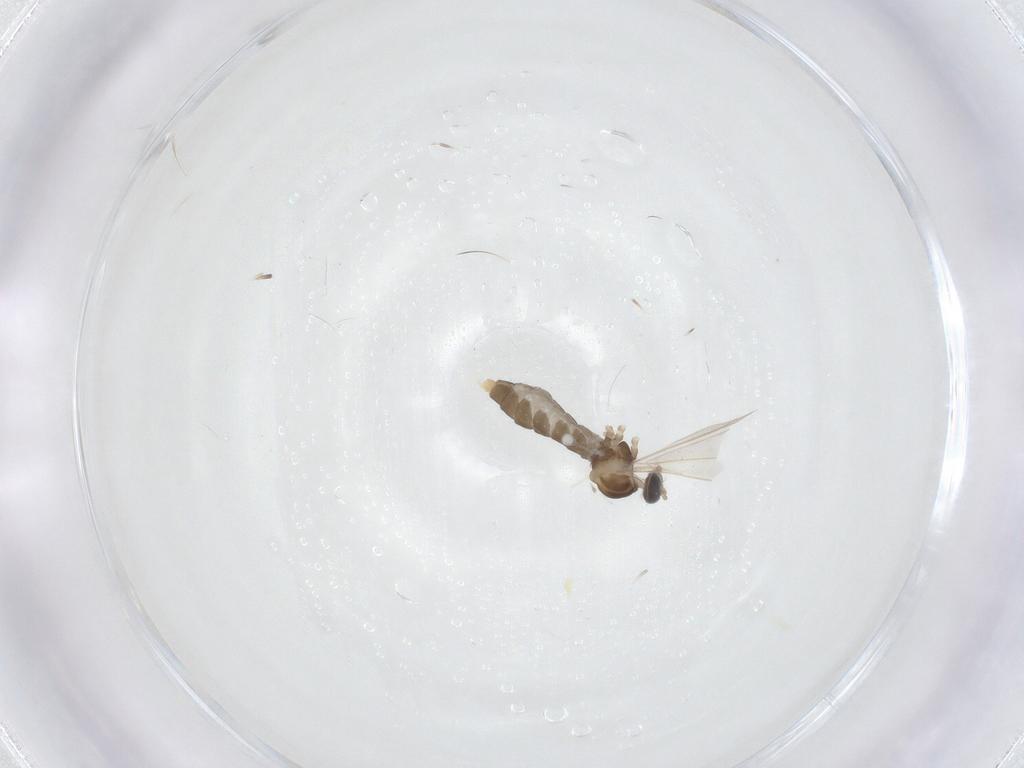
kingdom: Animalia
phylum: Arthropoda
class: Insecta
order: Diptera
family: Cecidomyiidae
